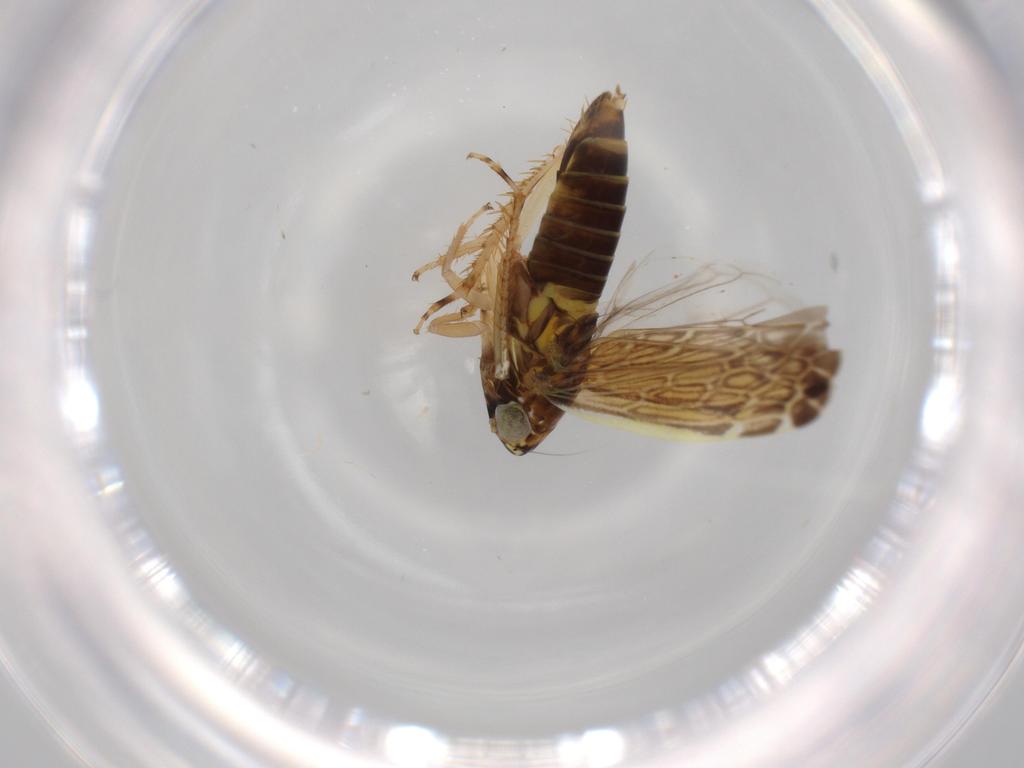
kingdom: Animalia
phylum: Arthropoda
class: Insecta
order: Hemiptera
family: Cicadellidae
